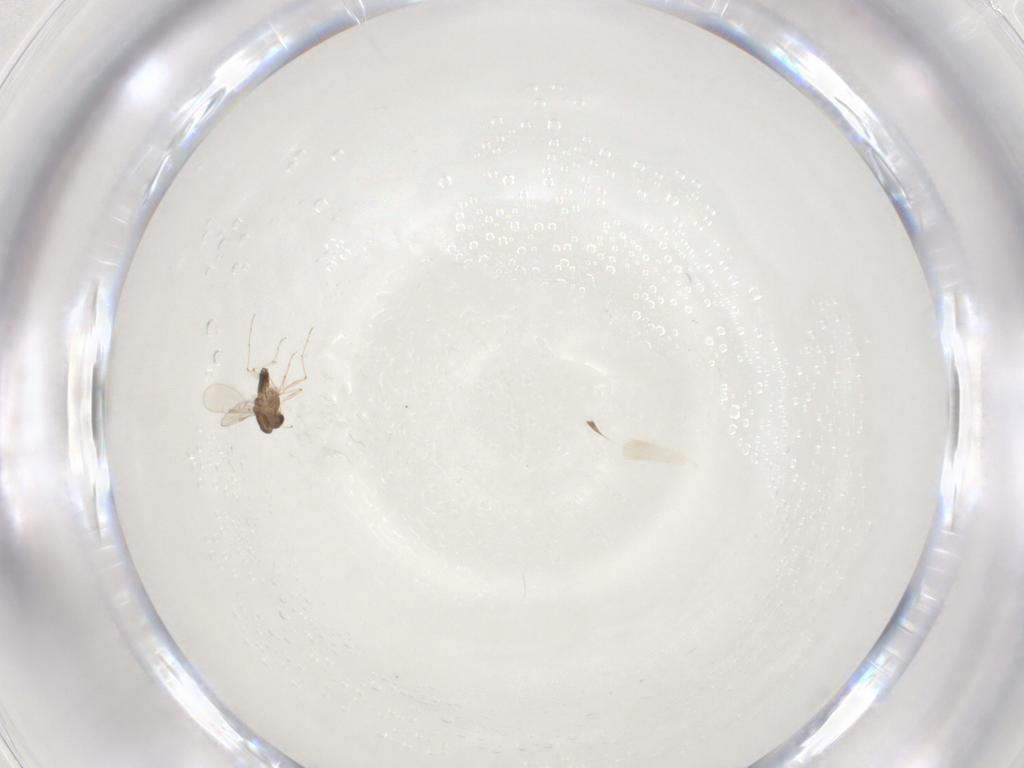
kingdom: Animalia
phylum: Arthropoda
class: Insecta
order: Diptera
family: Chironomidae
